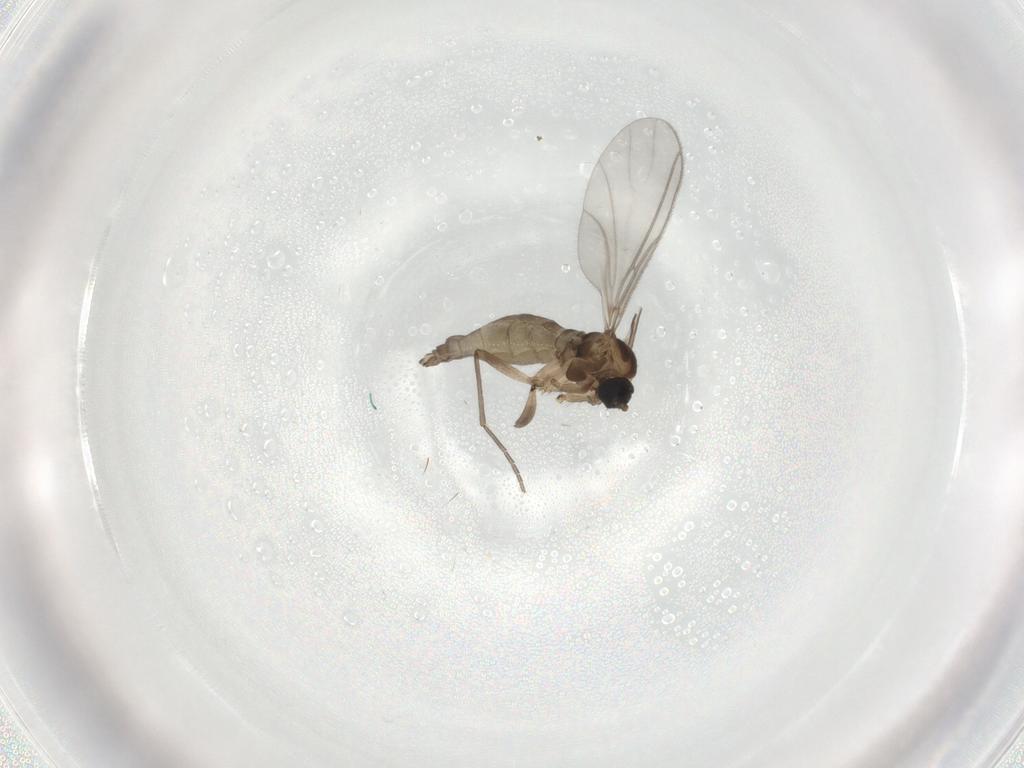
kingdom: Animalia
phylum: Arthropoda
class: Insecta
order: Diptera
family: Sciaridae
